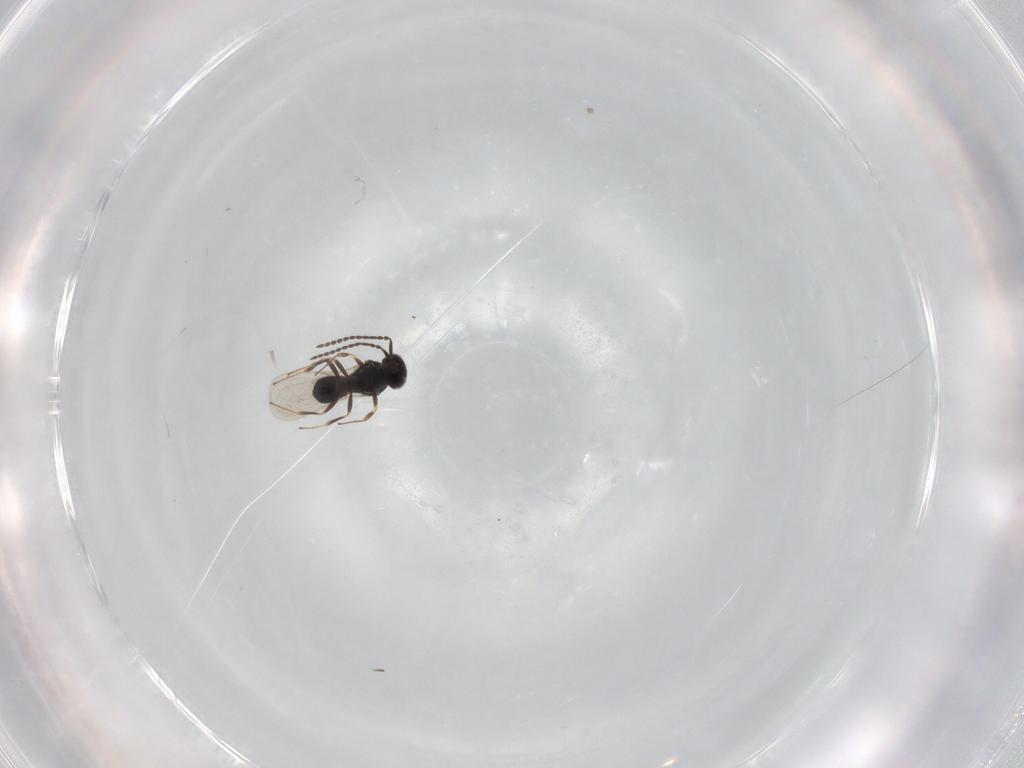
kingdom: Animalia
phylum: Arthropoda
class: Insecta
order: Hymenoptera
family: Scelionidae
